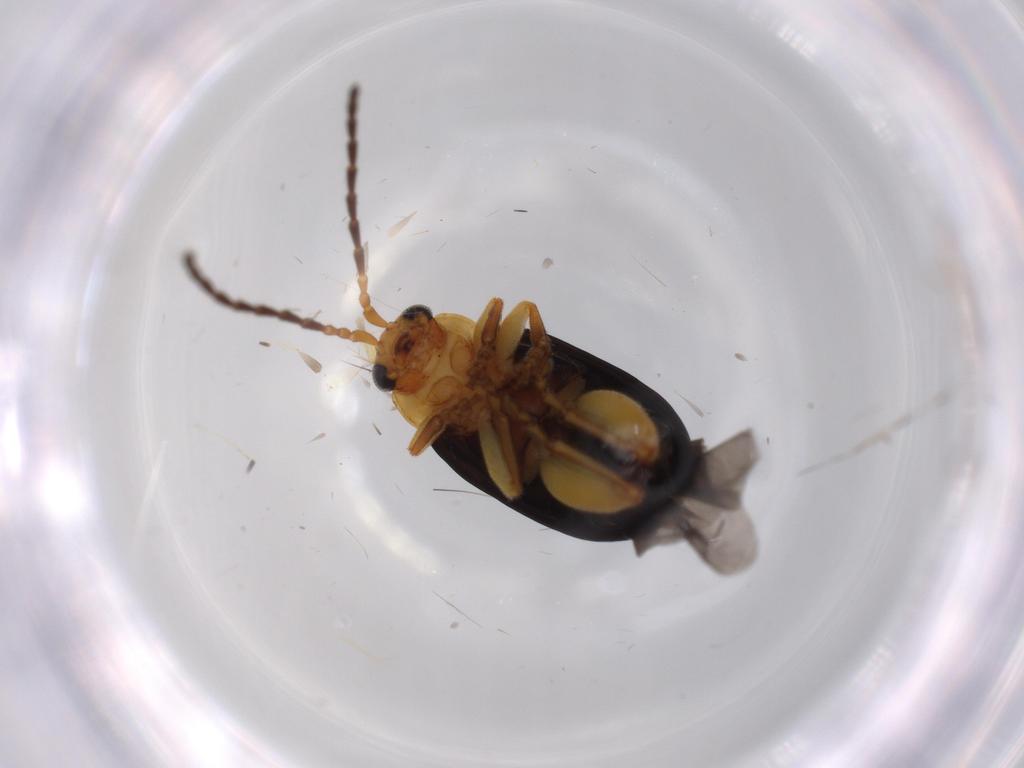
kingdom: Animalia
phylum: Arthropoda
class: Insecta
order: Coleoptera
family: Chrysomelidae
